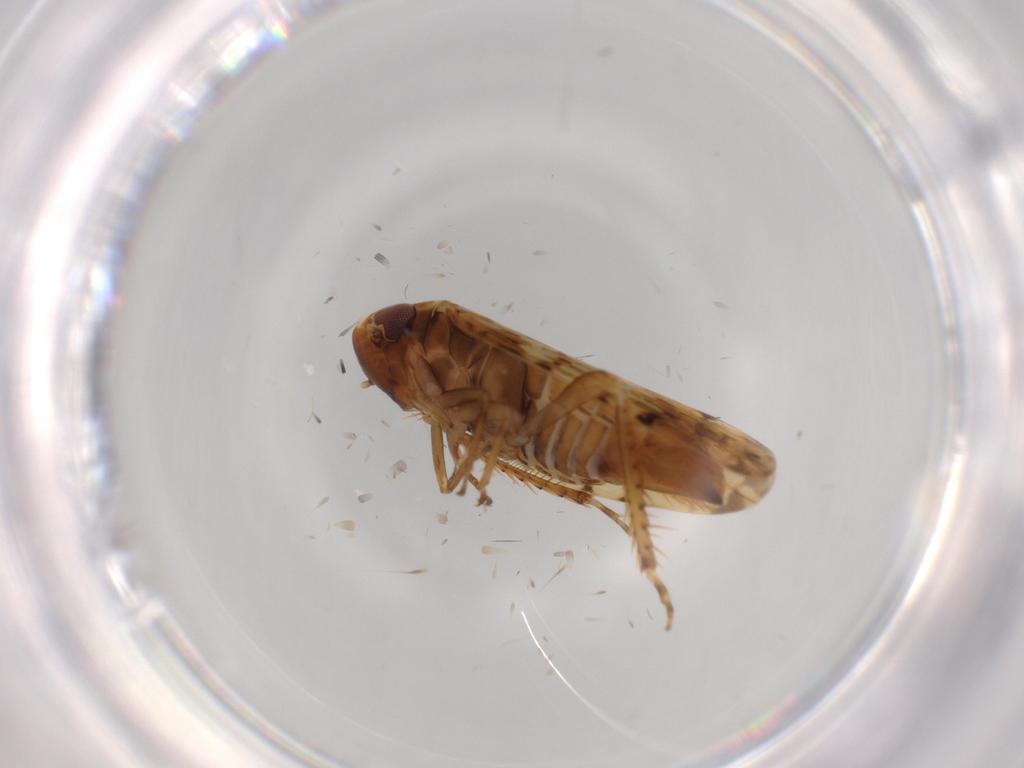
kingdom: Animalia
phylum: Arthropoda
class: Insecta
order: Hemiptera
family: Cicadellidae
